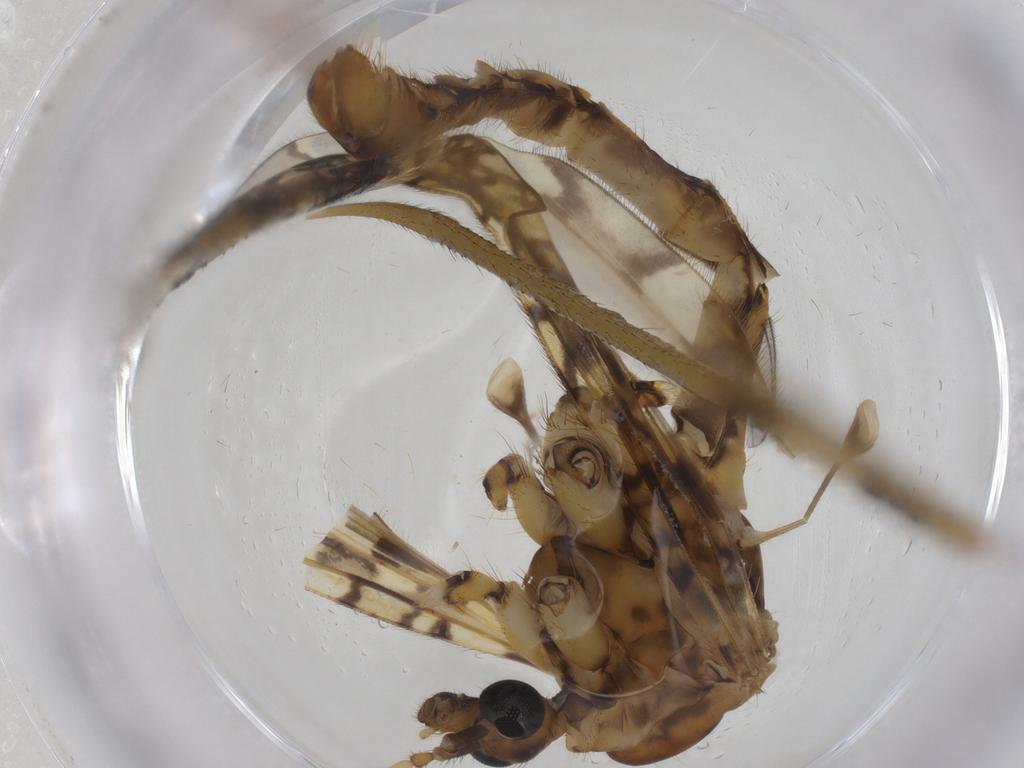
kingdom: Animalia
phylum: Arthropoda
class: Insecta
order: Diptera
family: Limoniidae
